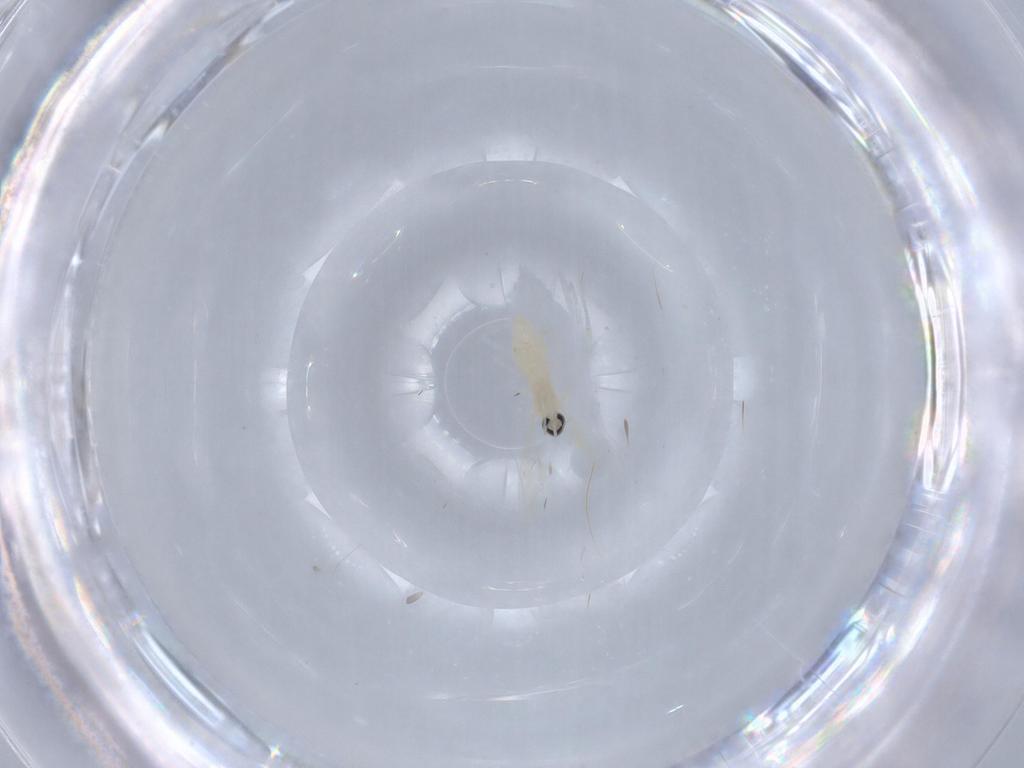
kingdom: Animalia
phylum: Arthropoda
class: Insecta
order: Diptera
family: Cecidomyiidae
